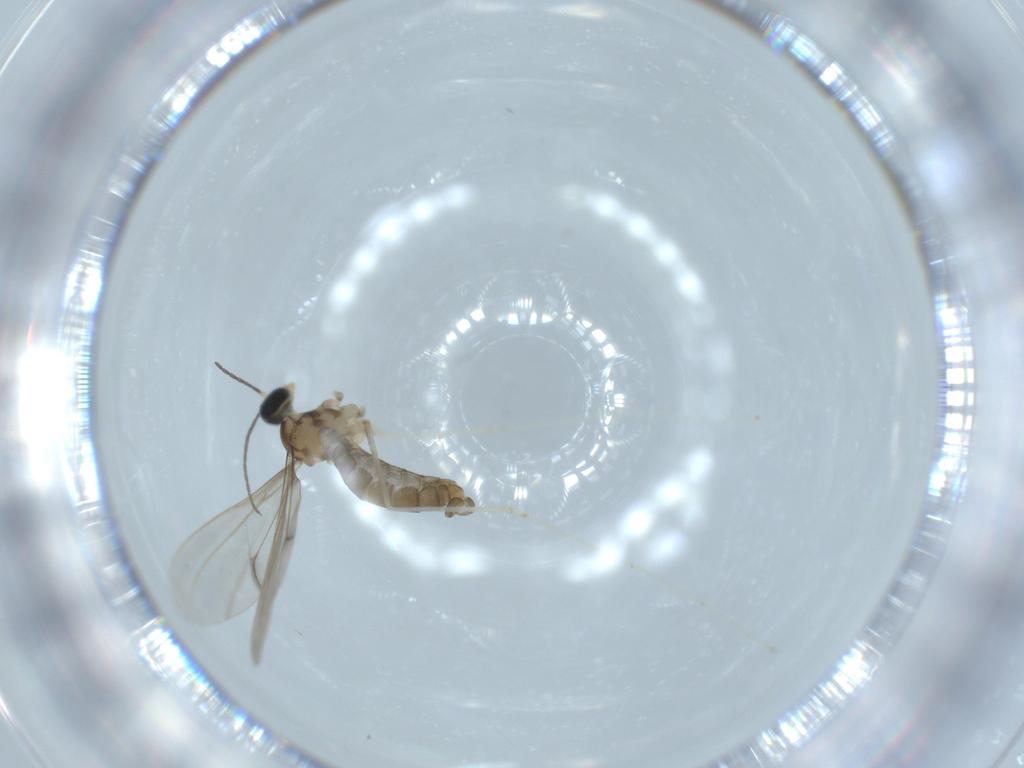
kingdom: Animalia
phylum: Arthropoda
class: Insecta
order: Diptera
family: Cecidomyiidae
